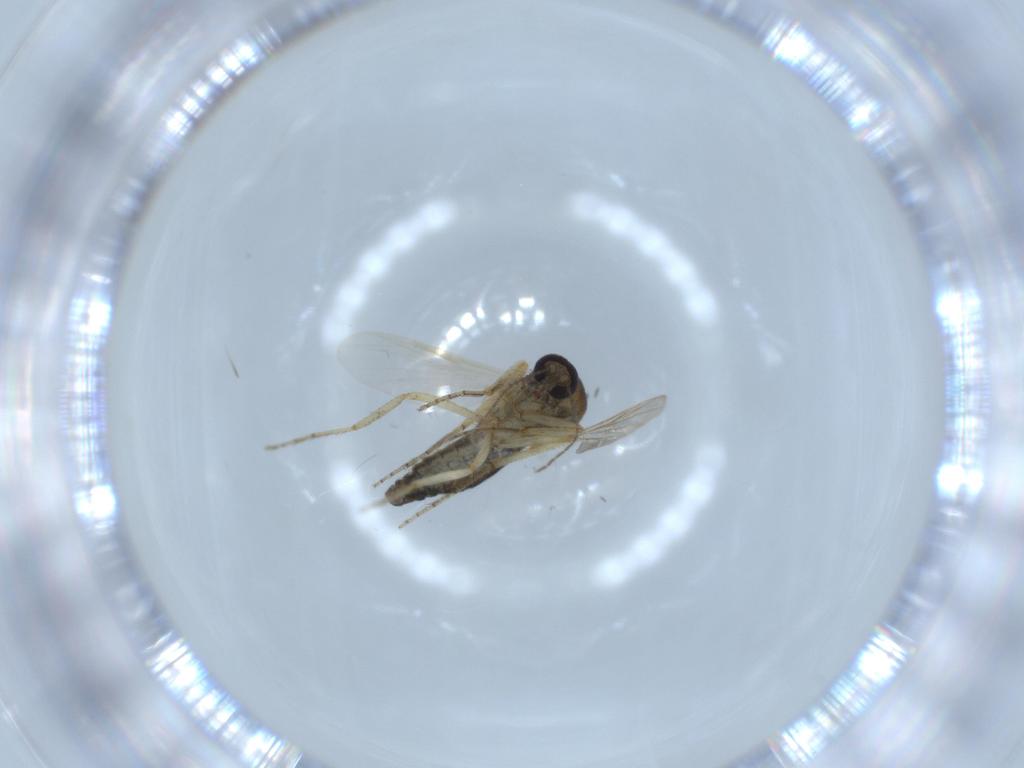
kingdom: Animalia
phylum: Arthropoda
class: Insecta
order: Diptera
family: Ceratopogonidae
